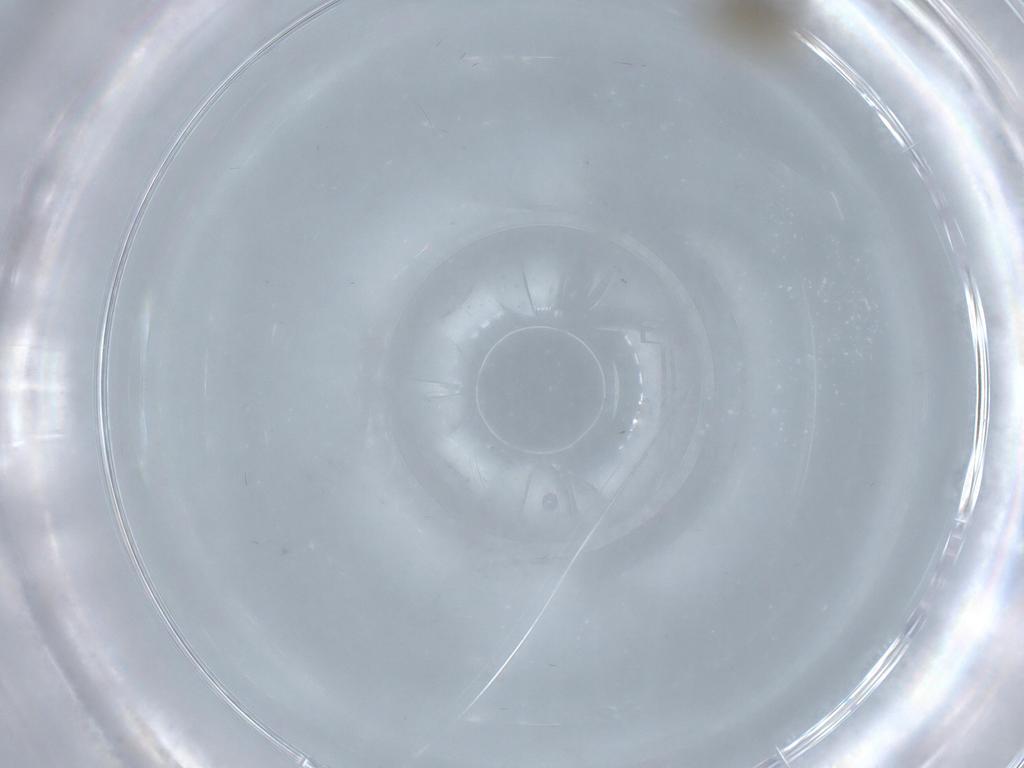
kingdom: Animalia
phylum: Arthropoda
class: Insecta
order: Diptera
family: Chironomidae
